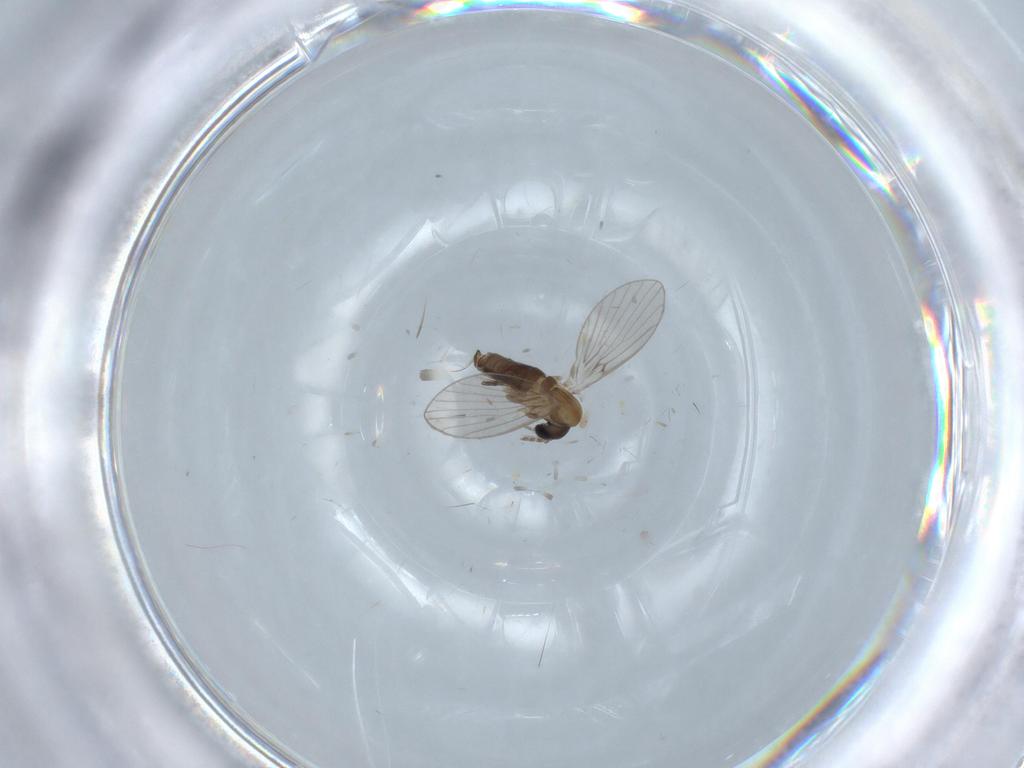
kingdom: Animalia
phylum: Arthropoda
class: Insecta
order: Diptera
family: Psychodidae
